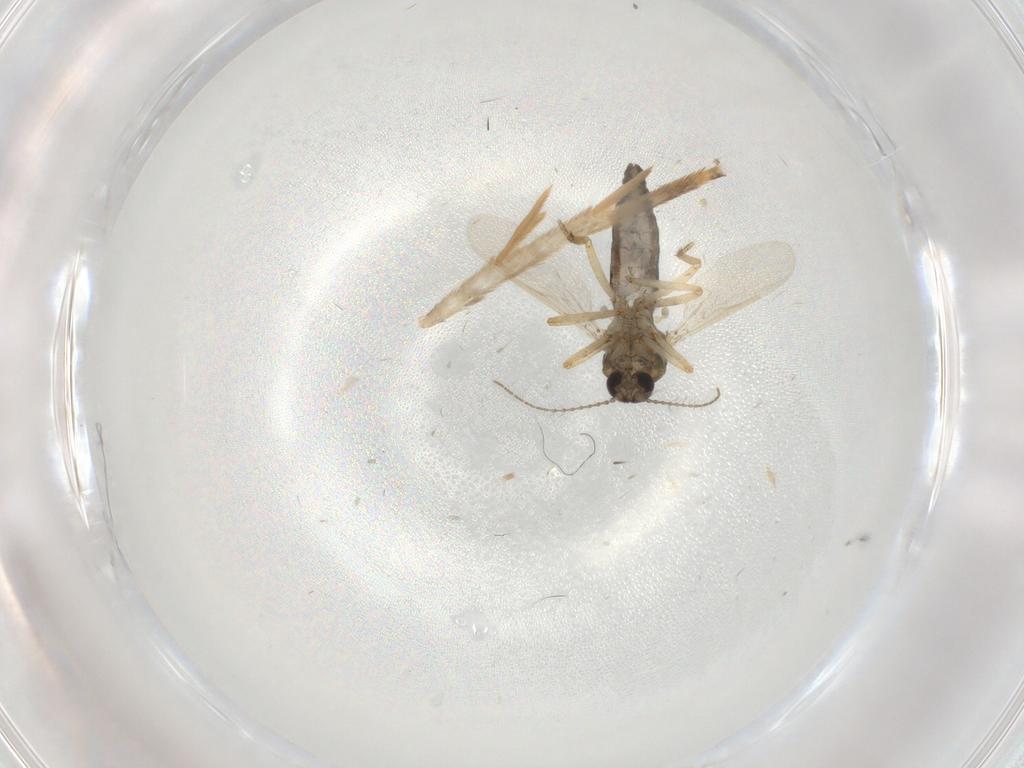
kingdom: Animalia
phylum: Arthropoda
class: Insecta
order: Diptera
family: Ceratopogonidae
